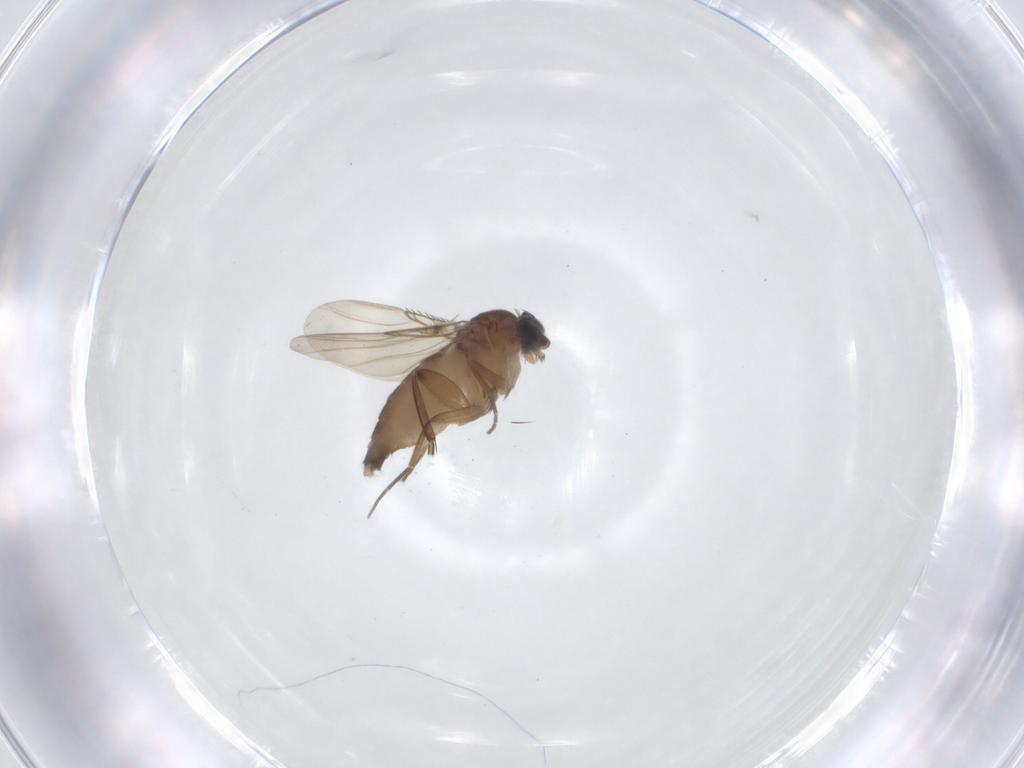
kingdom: Animalia
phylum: Arthropoda
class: Insecta
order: Diptera
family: Phoridae
